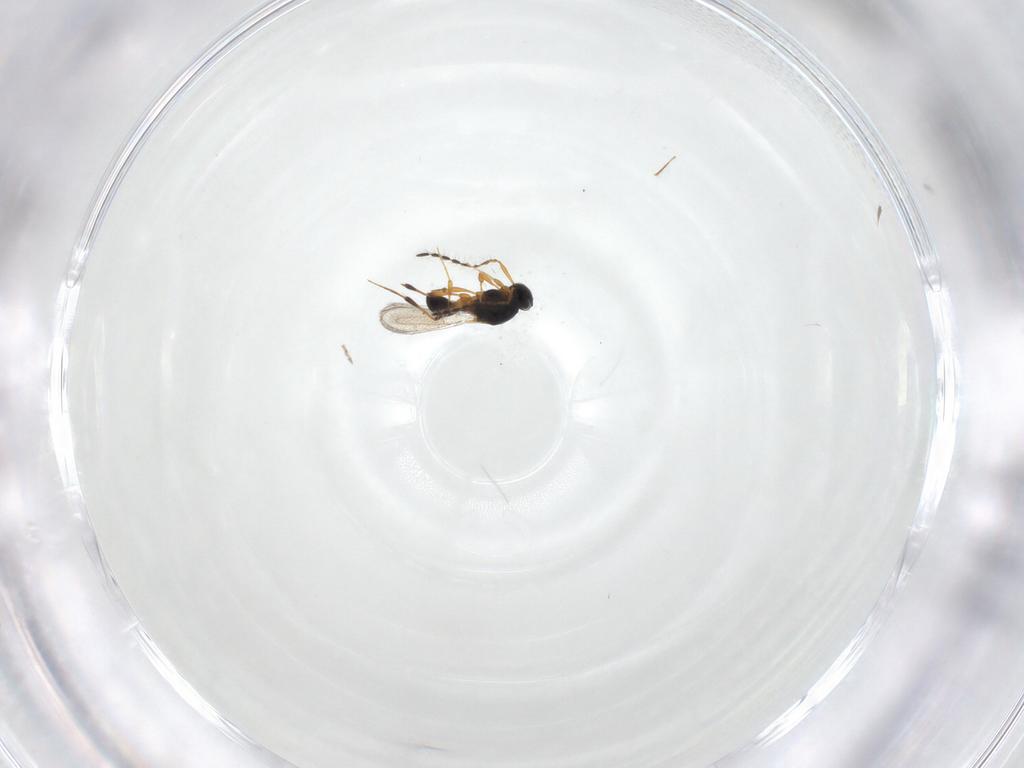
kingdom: Animalia
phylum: Arthropoda
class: Insecta
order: Hymenoptera
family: Platygastridae
